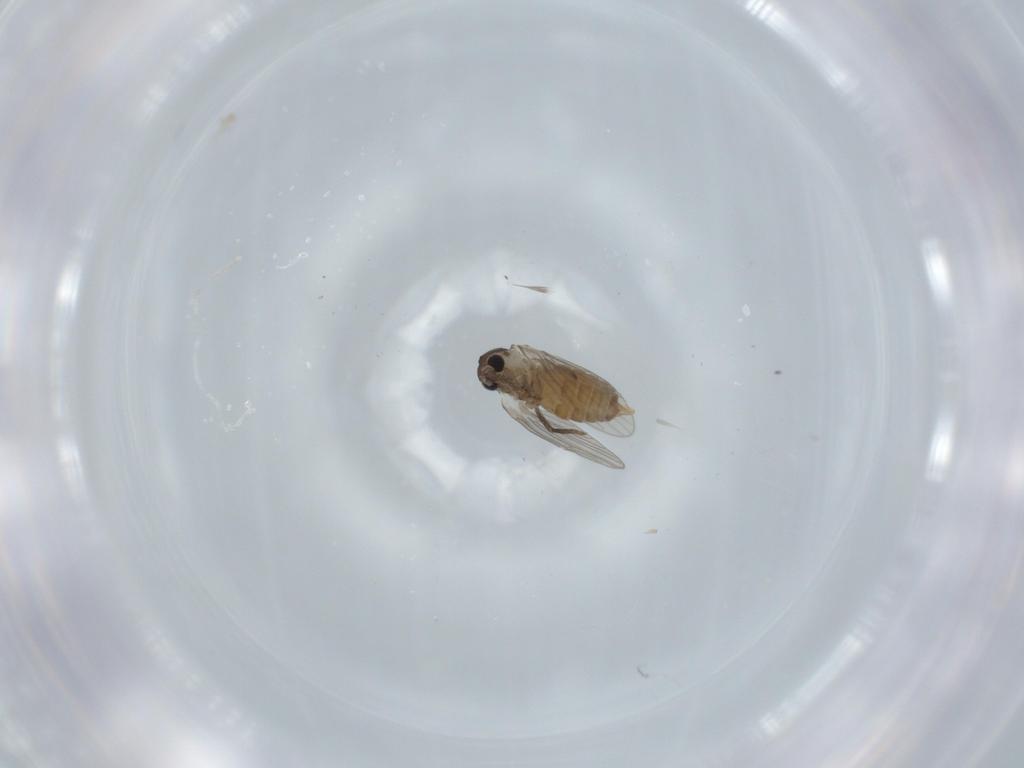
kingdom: Animalia
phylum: Arthropoda
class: Insecta
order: Diptera
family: Psychodidae
